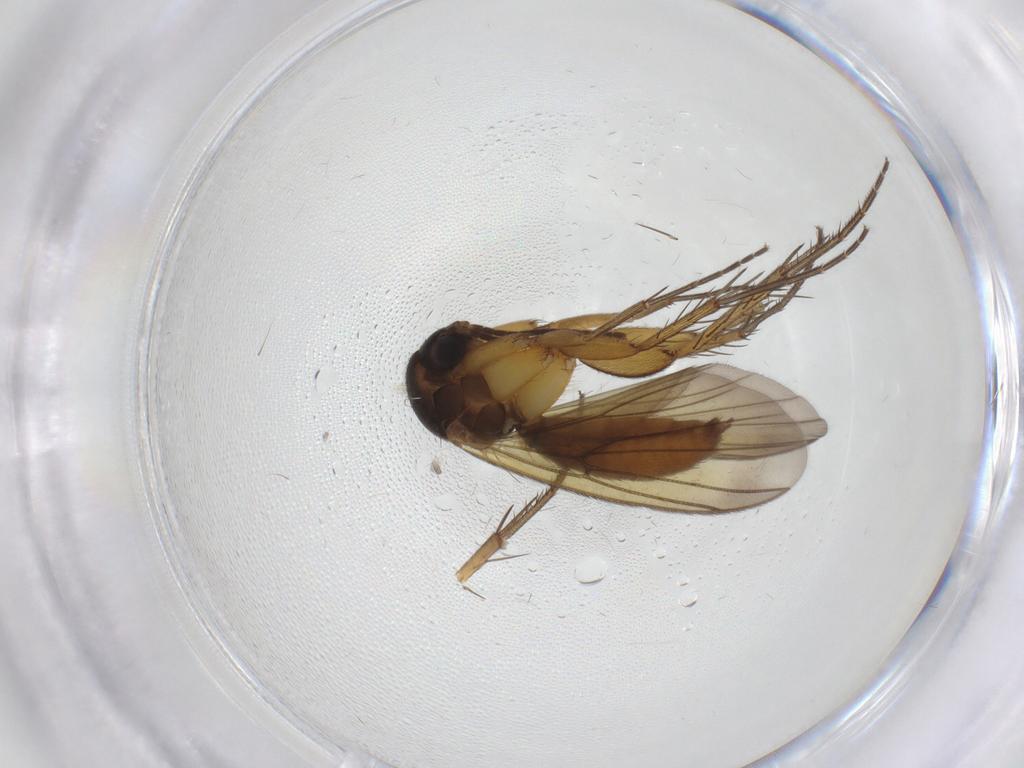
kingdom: Animalia
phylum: Arthropoda
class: Insecta
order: Diptera
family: Mycetophilidae
